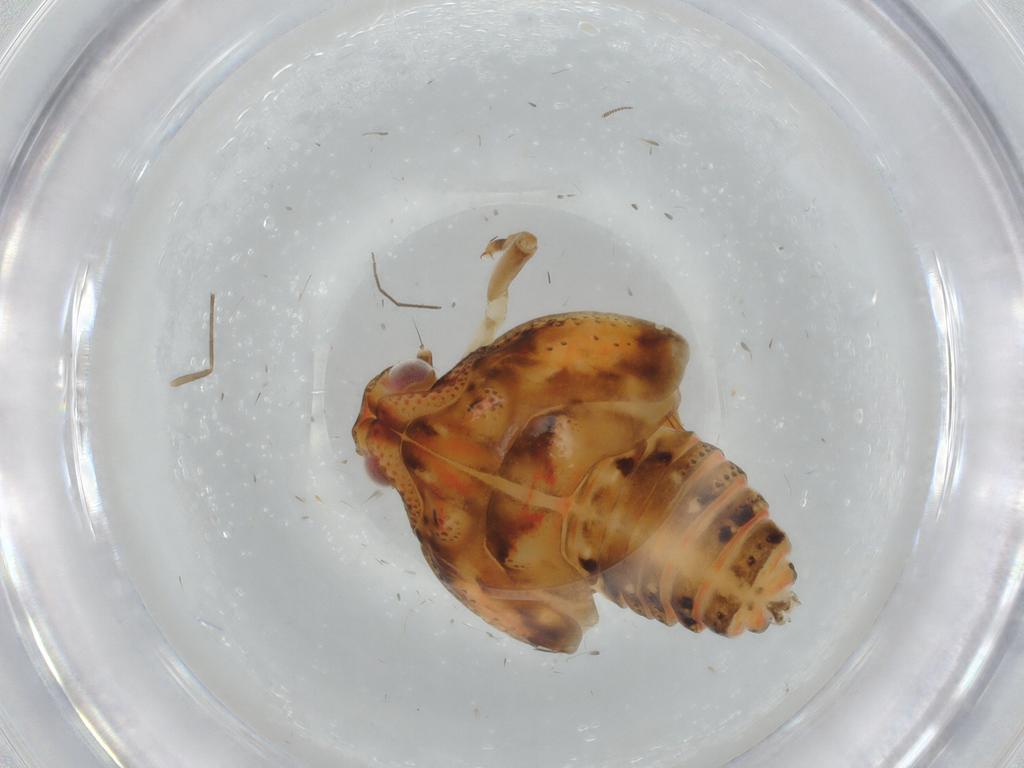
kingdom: Animalia
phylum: Arthropoda
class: Insecta
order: Hemiptera
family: Flatidae
